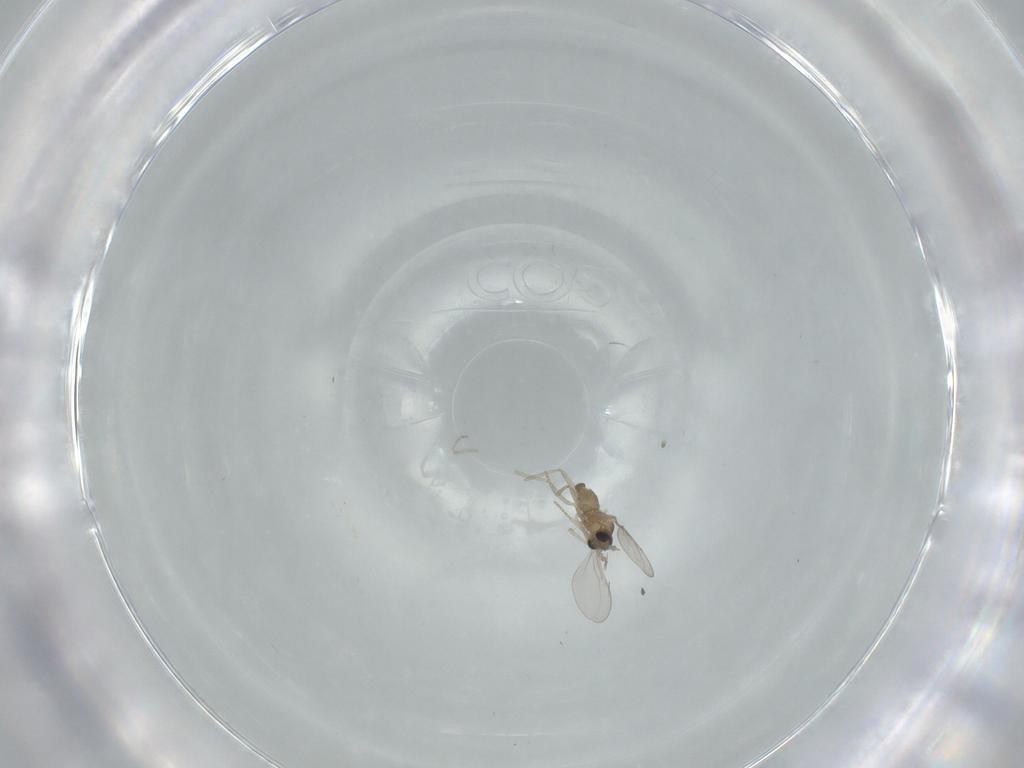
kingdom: Animalia
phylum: Arthropoda
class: Insecta
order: Diptera
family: Cecidomyiidae
